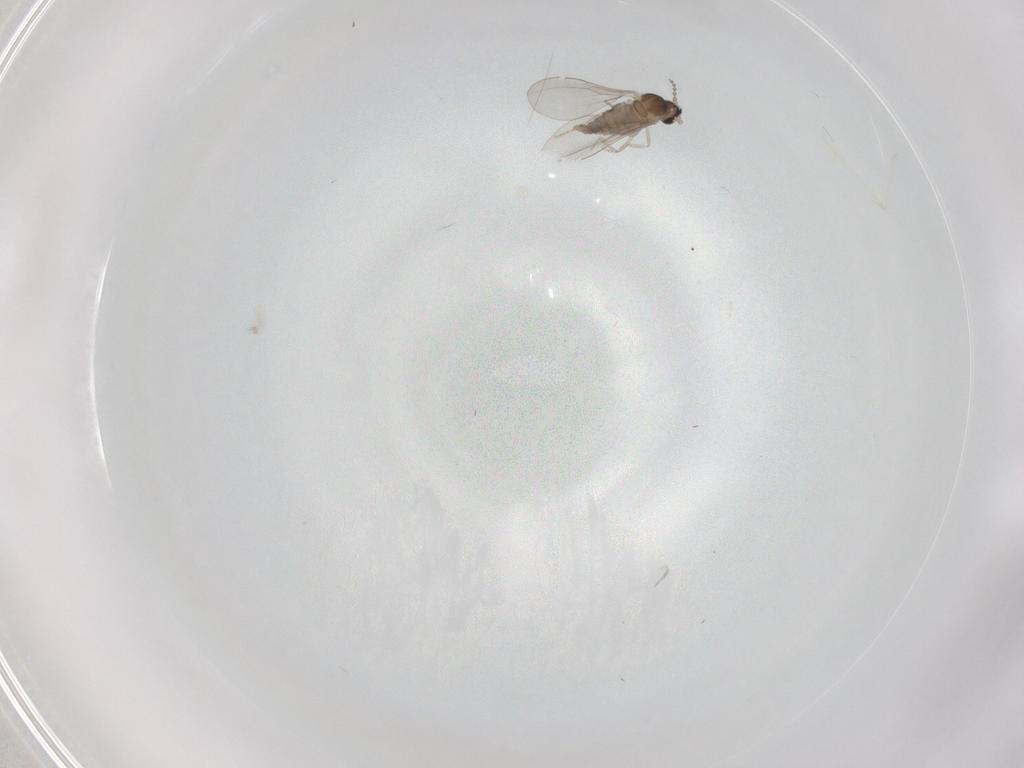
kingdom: Animalia
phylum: Arthropoda
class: Insecta
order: Diptera
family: Cecidomyiidae
